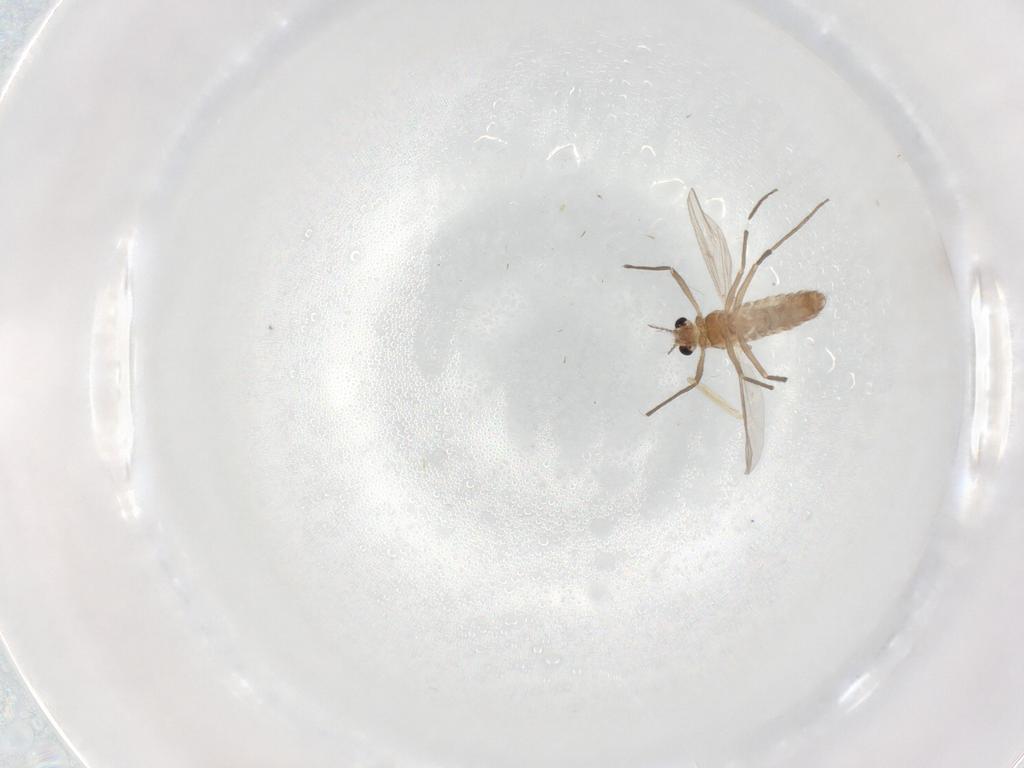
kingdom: Animalia
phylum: Arthropoda
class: Insecta
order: Diptera
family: Chironomidae
